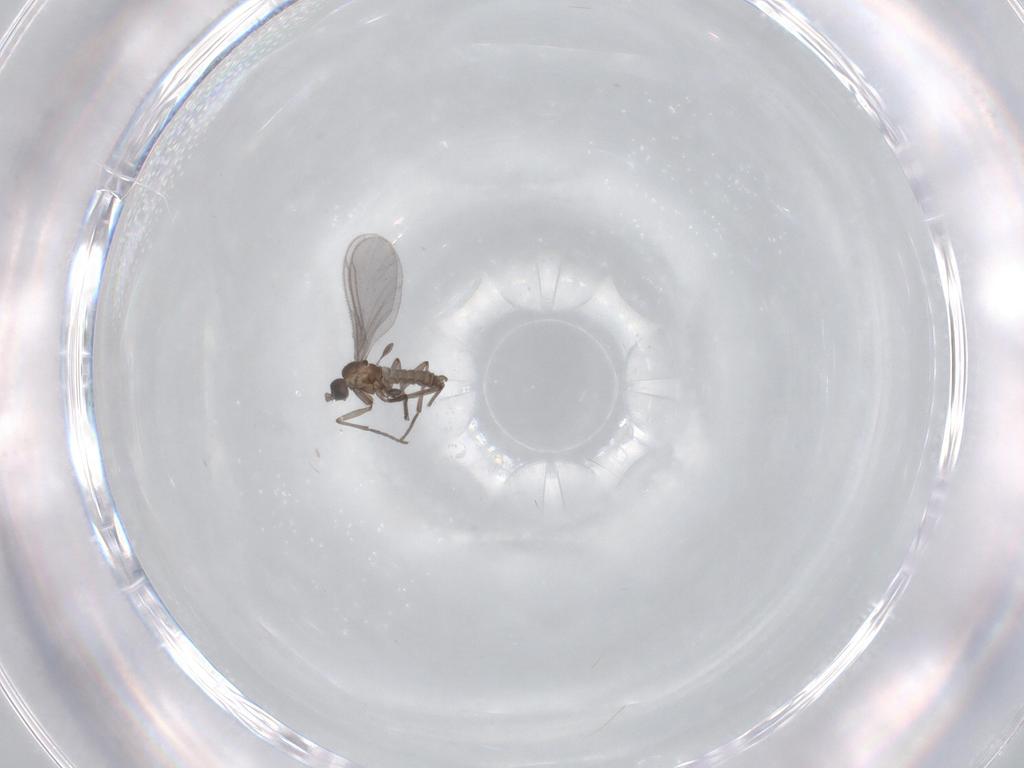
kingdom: Animalia
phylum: Arthropoda
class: Insecta
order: Diptera
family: Sciaridae
